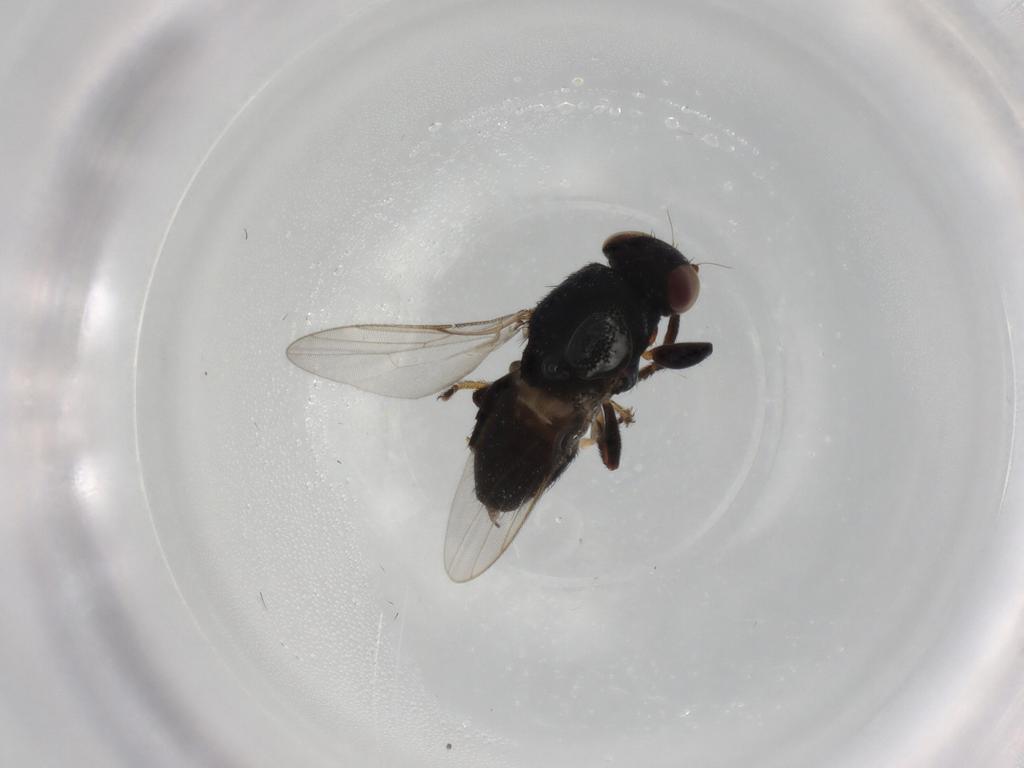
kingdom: Animalia
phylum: Arthropoda
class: Insecta
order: Diptera
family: Chloropidae
